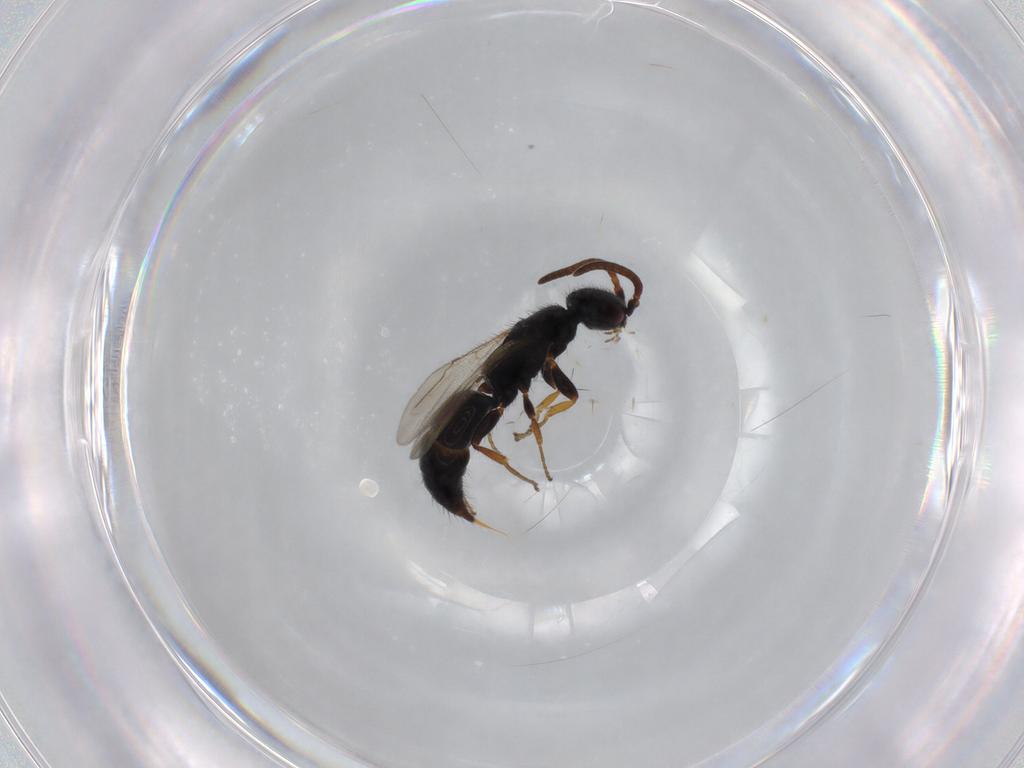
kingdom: Animalia
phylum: Arthropoda
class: Insecta
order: Hymenoptera
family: Bethylidae
